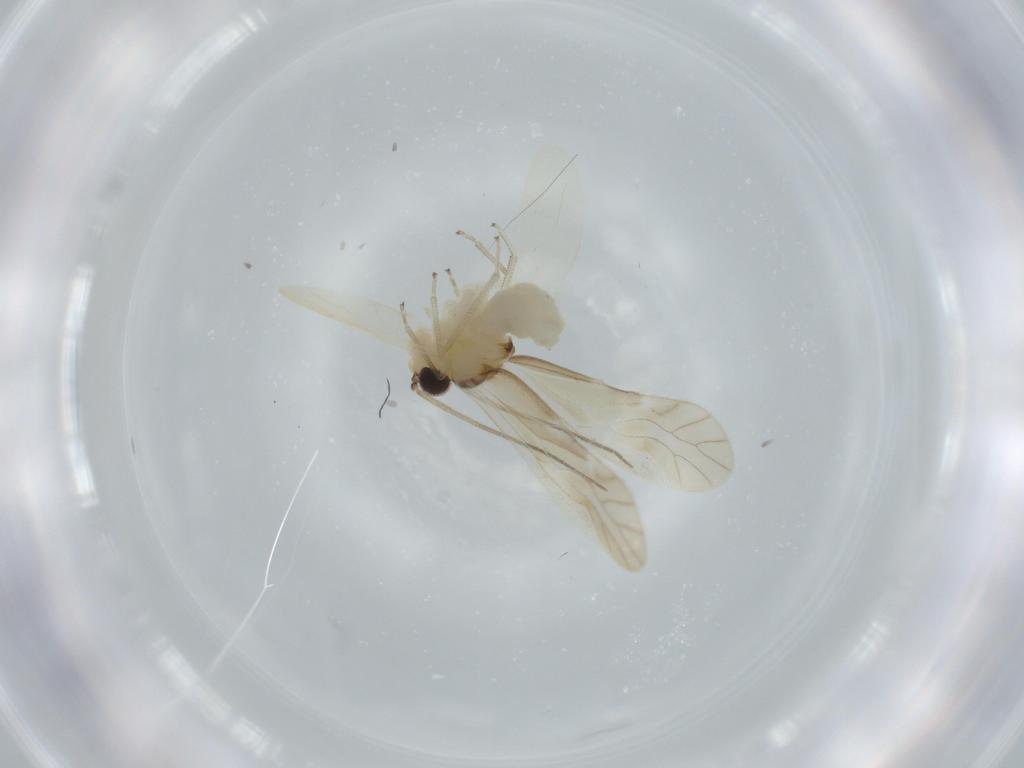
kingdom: Animalia
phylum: Arthropoda
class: Insecta
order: Psocodea
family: Caeciliusidae
